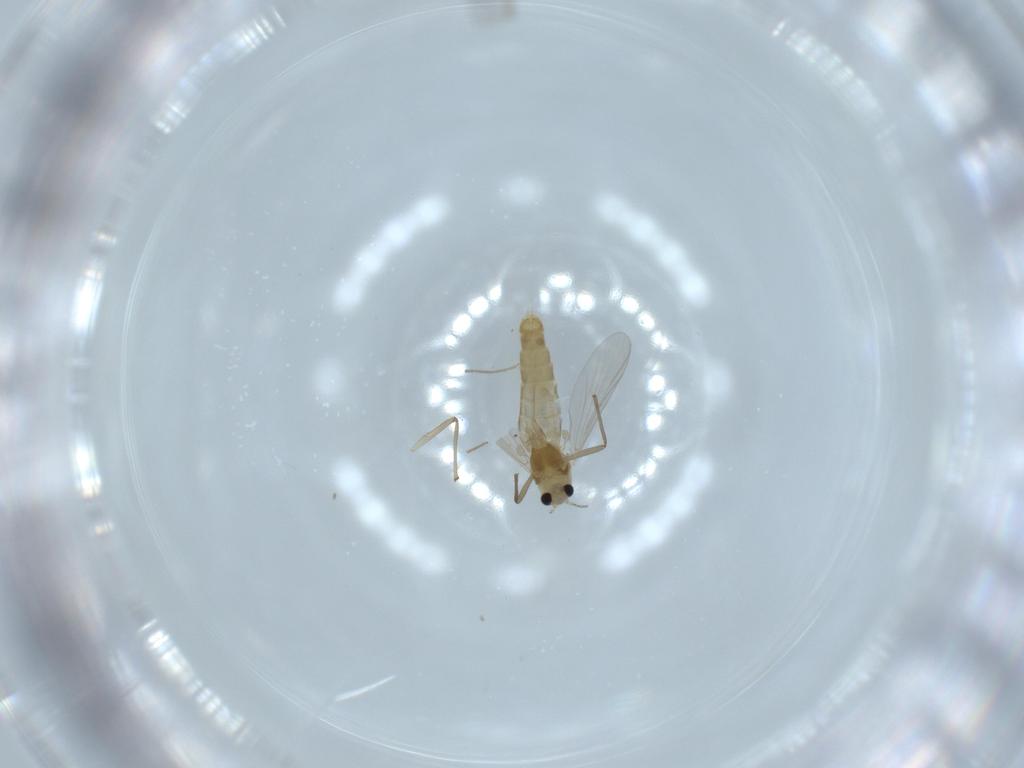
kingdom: Animalia
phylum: Arthropoda
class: Insecta
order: Diptera
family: Chironomidae
